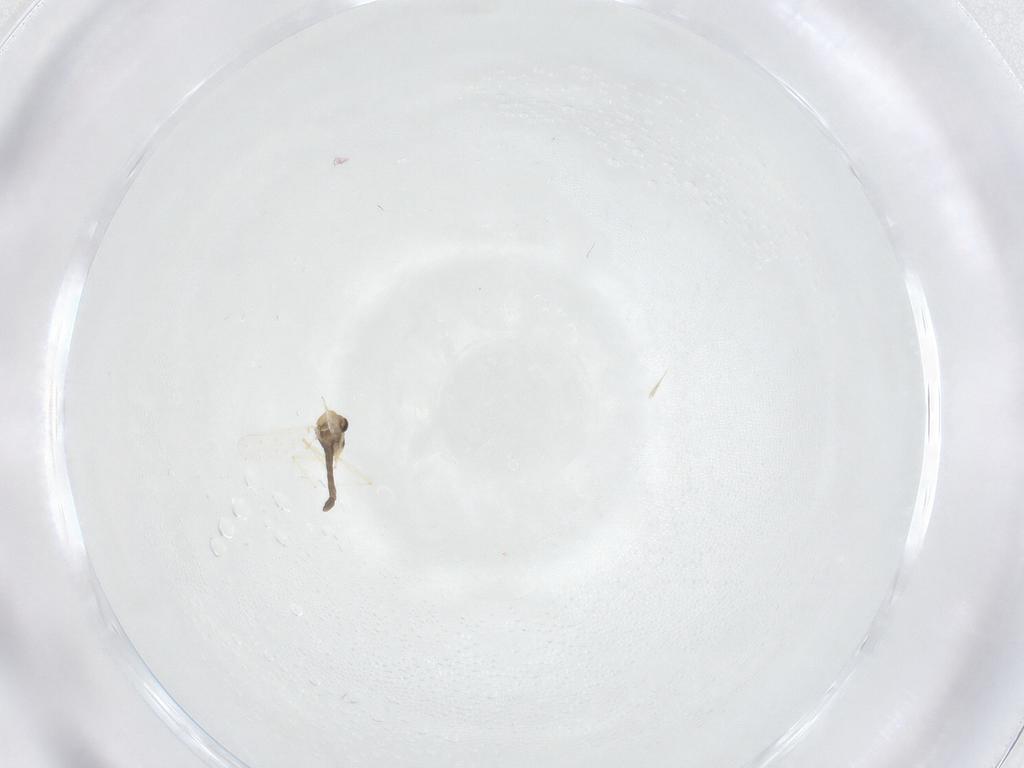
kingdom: Animalia
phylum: Arthropoda
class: Insecta
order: Diptera
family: Chironomidae
